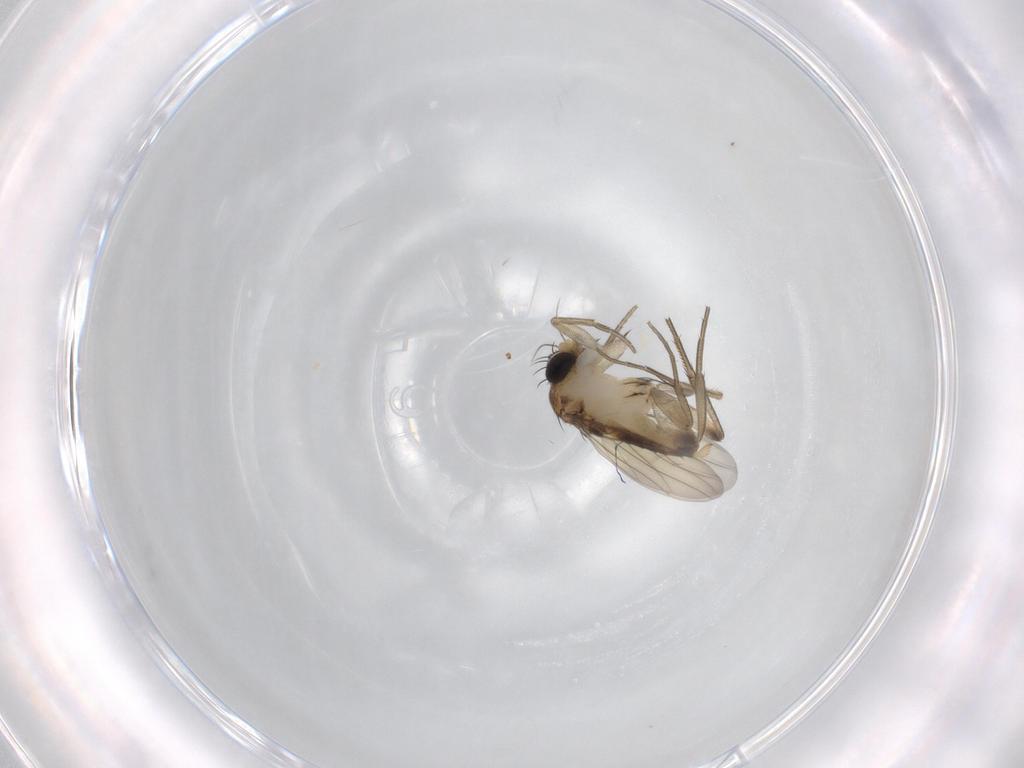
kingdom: Animalia
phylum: Arthropoda
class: Insecta
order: Diptera
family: Phoridae
